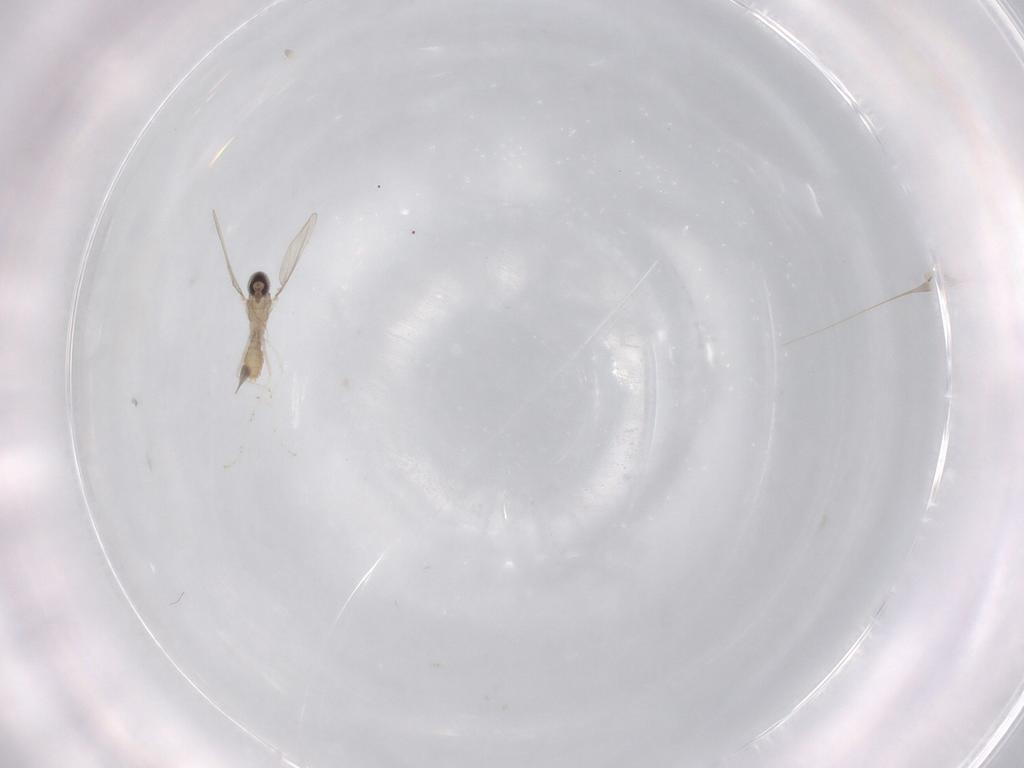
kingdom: Animalia
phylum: Arthropoda
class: Insecta
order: Diptera
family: Cecidomyiidae
